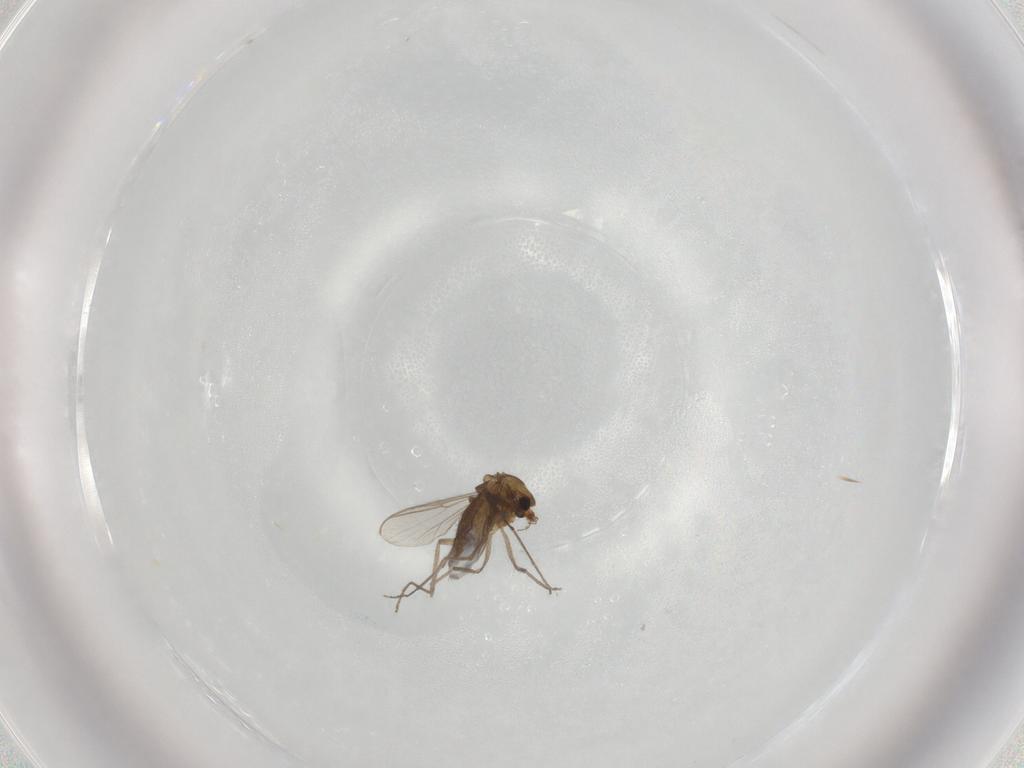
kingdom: Animalia
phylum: Arthropoda
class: Insecta
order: Diptera
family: Chironomidae
